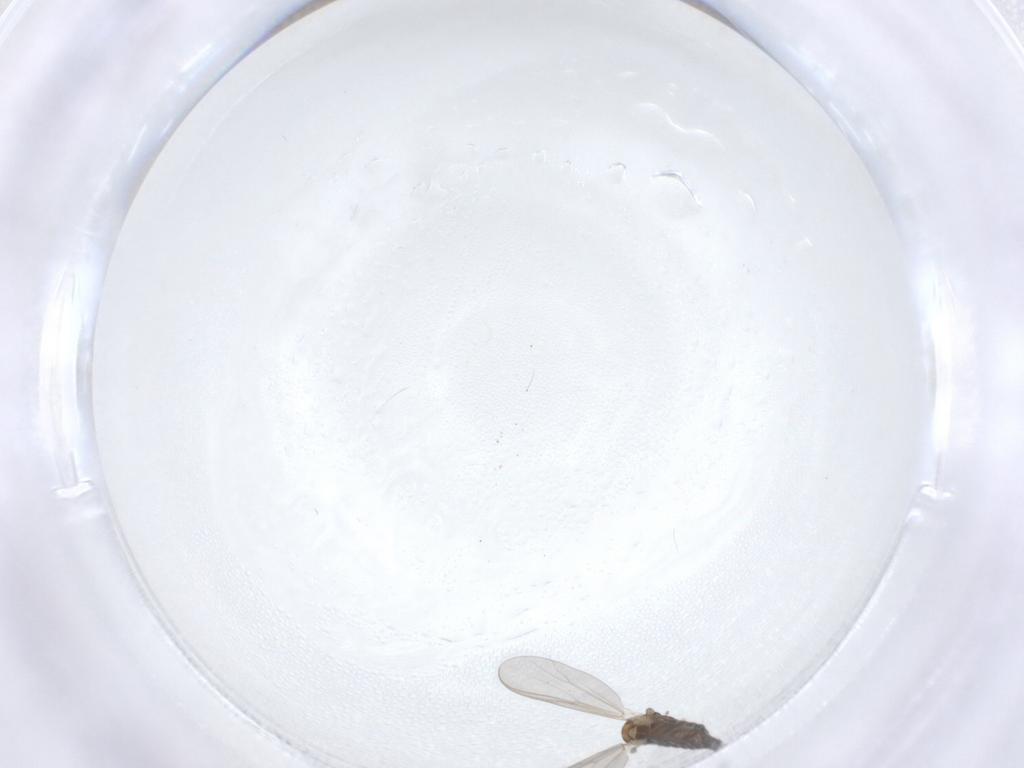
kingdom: Animalia
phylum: Arthropoda
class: Insecta
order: Diptera
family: Chironomidae
